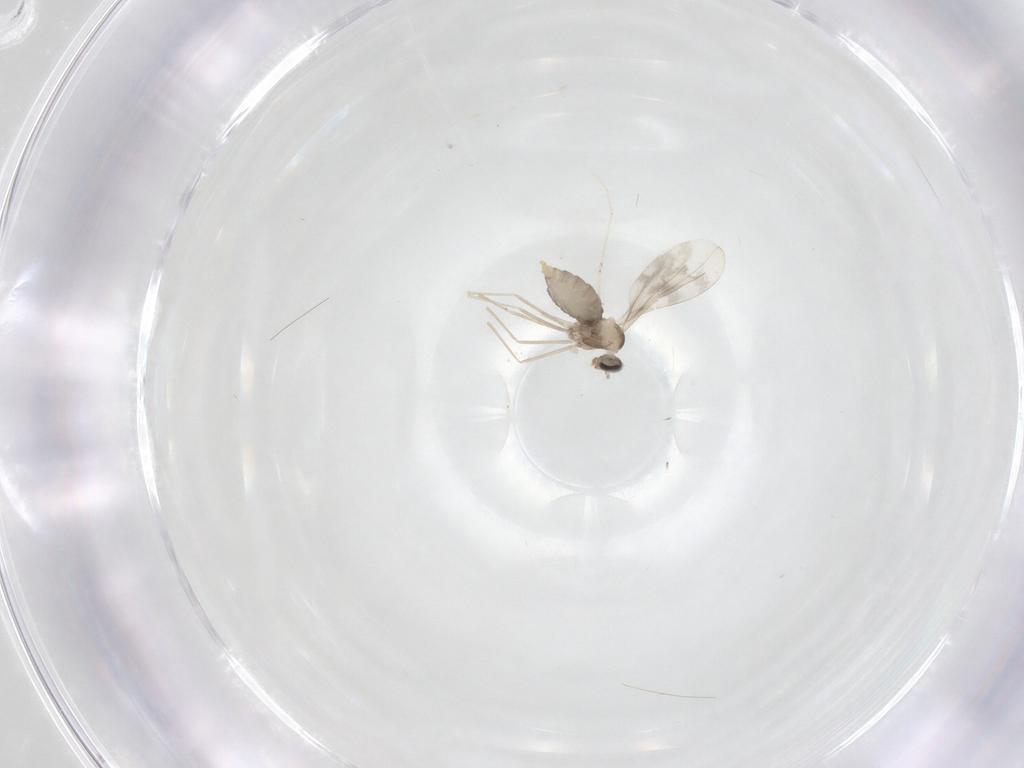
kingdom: Animalia
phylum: Arthropoda
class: Insecta
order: Diptera
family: Cecidomyiidae
